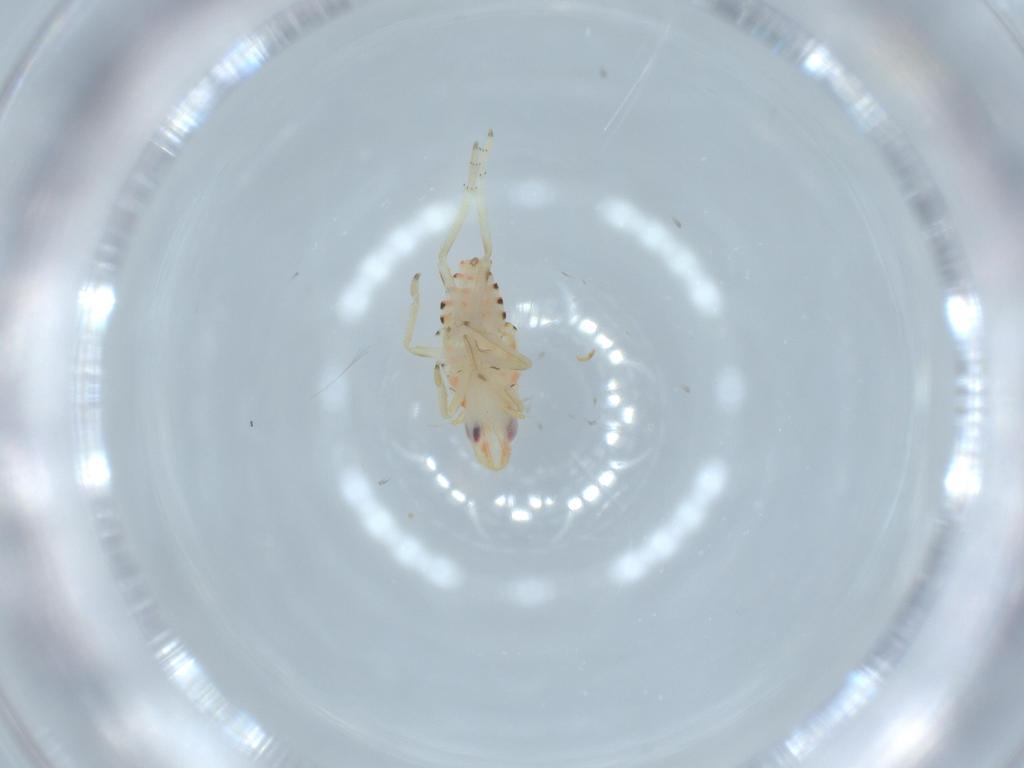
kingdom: Animalia
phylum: Arthropoda
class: Insecta
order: Hemiptera
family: Tropiduchidae
